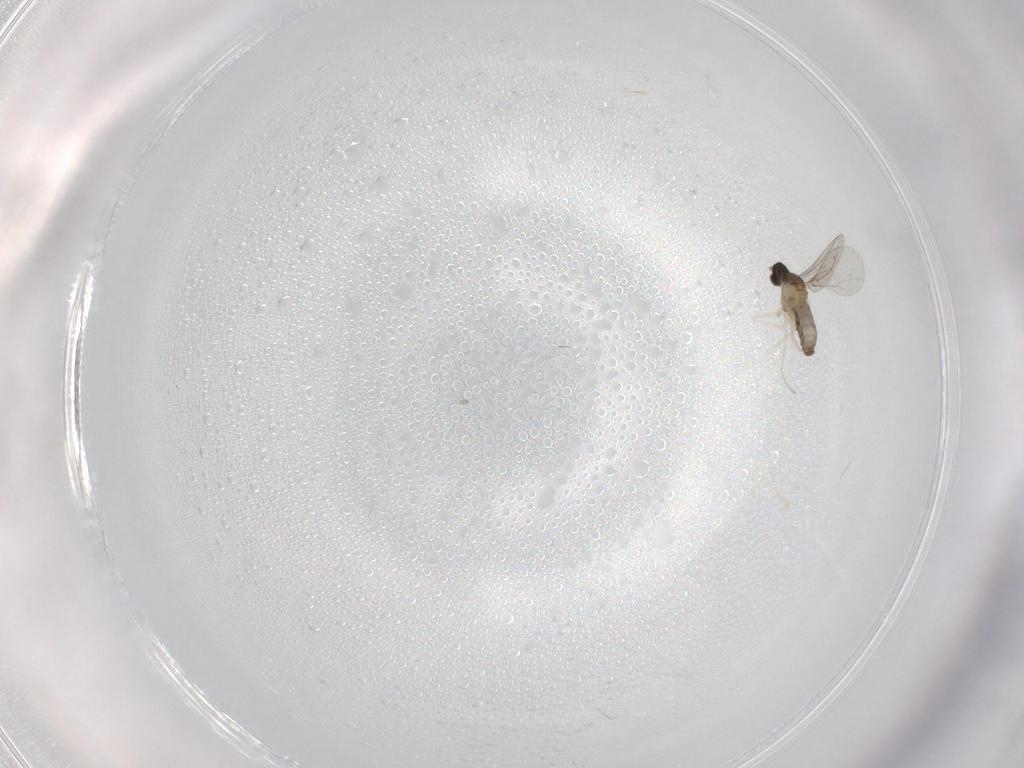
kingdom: Animalia
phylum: Arthropoda
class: Insecta
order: Diptera
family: Cecidomyiidae
